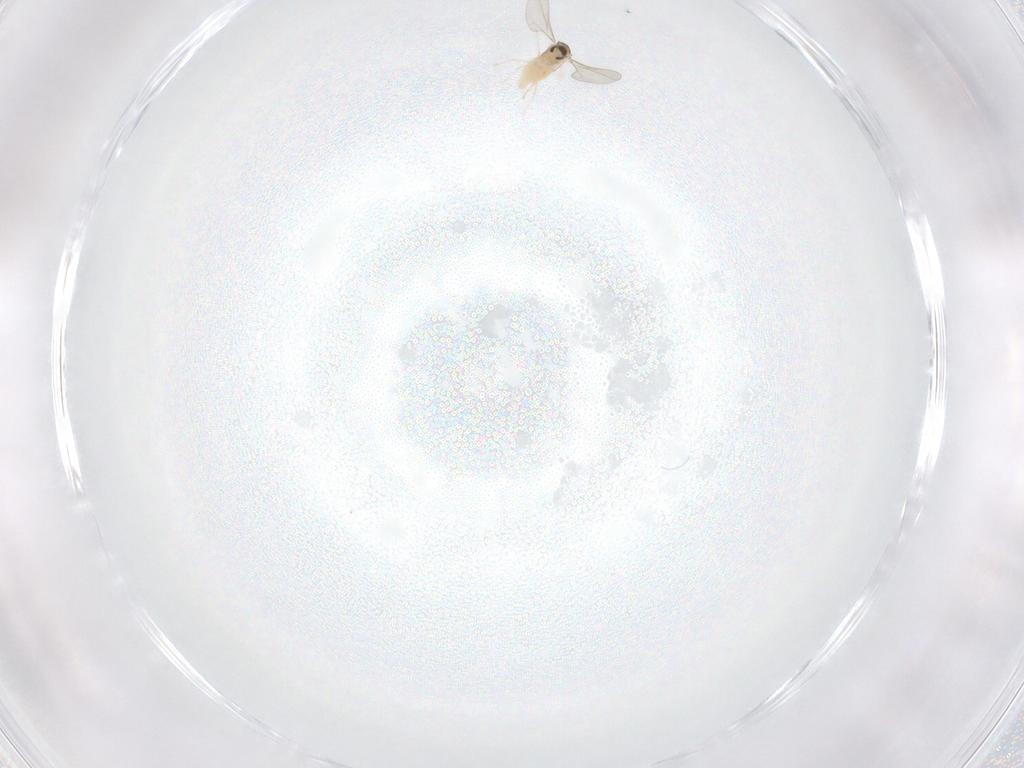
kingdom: Animalia
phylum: Arthropoda
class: Insecta
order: Diptera
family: Cecidomyiidae
